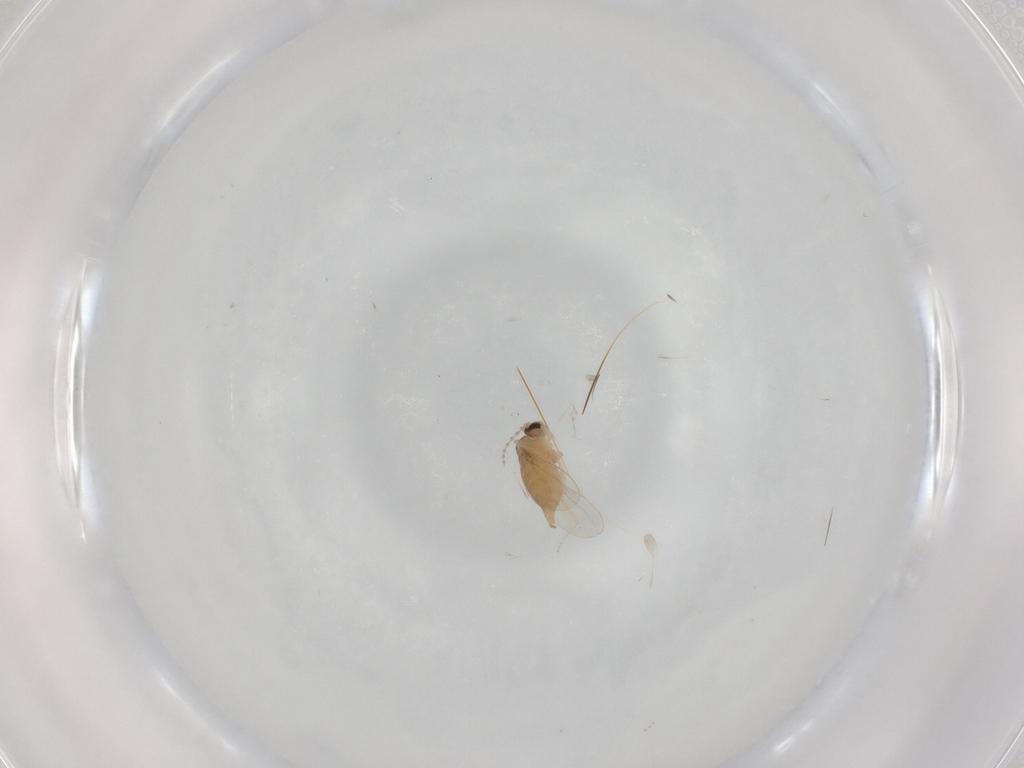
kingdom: Animalia
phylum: Arthropoda
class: Insecta
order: Diptera
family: Cecidomyiidae
